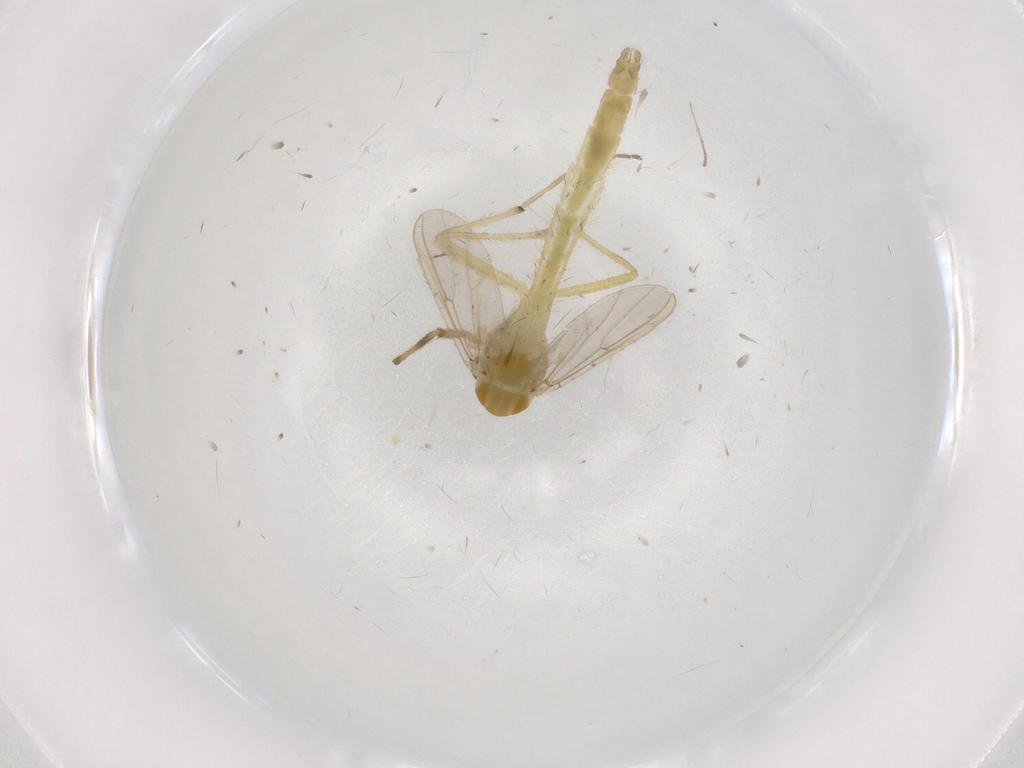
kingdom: Animalia
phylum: Arthropoda
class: Insecta
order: Diptera
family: Chironomidae
